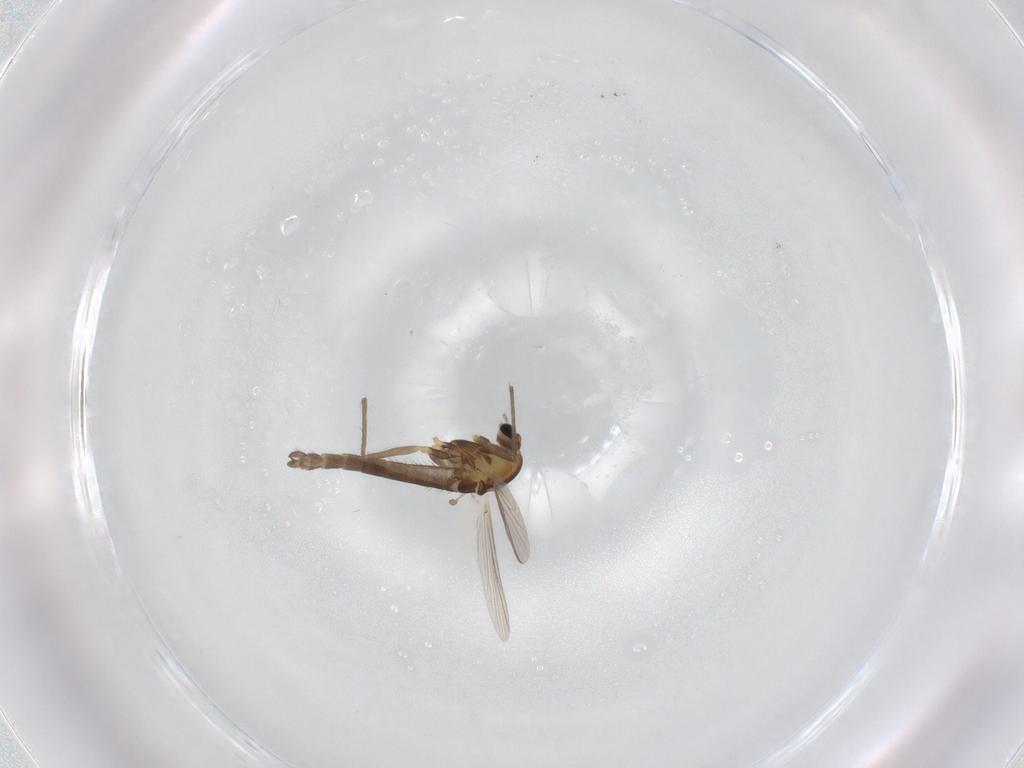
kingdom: Animalia
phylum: Arthropoda
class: Insecta
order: Diptera
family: Chironomidae
